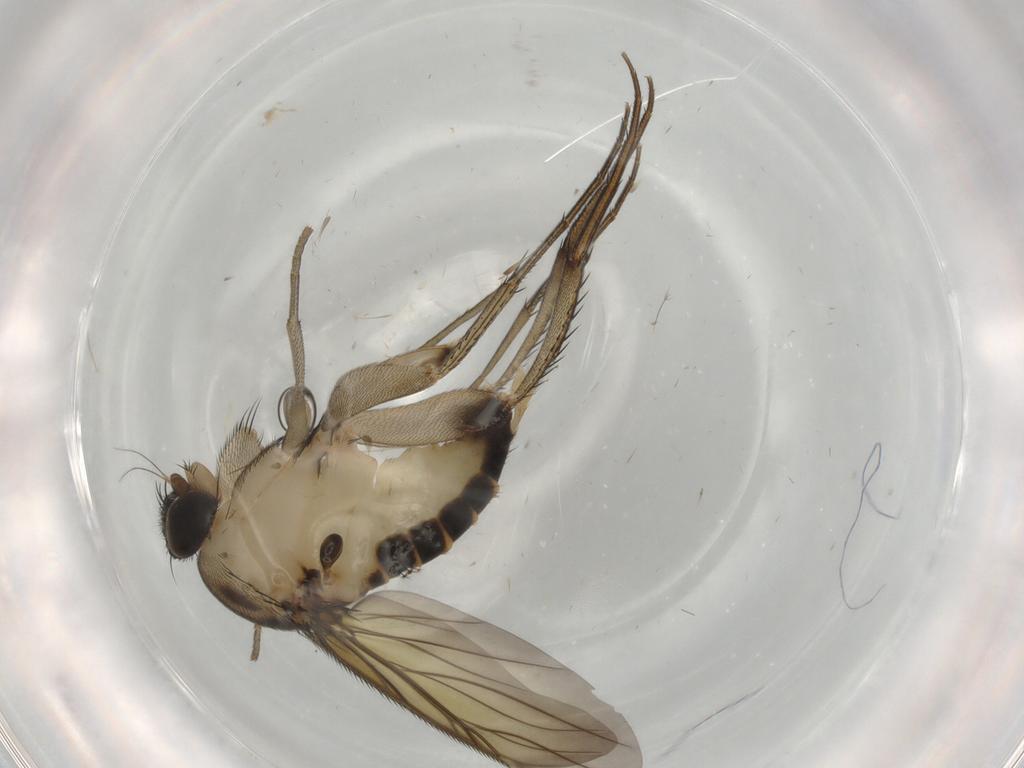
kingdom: Animalia
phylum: Arthropoda
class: Insecta
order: Diptera
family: Phoridae
